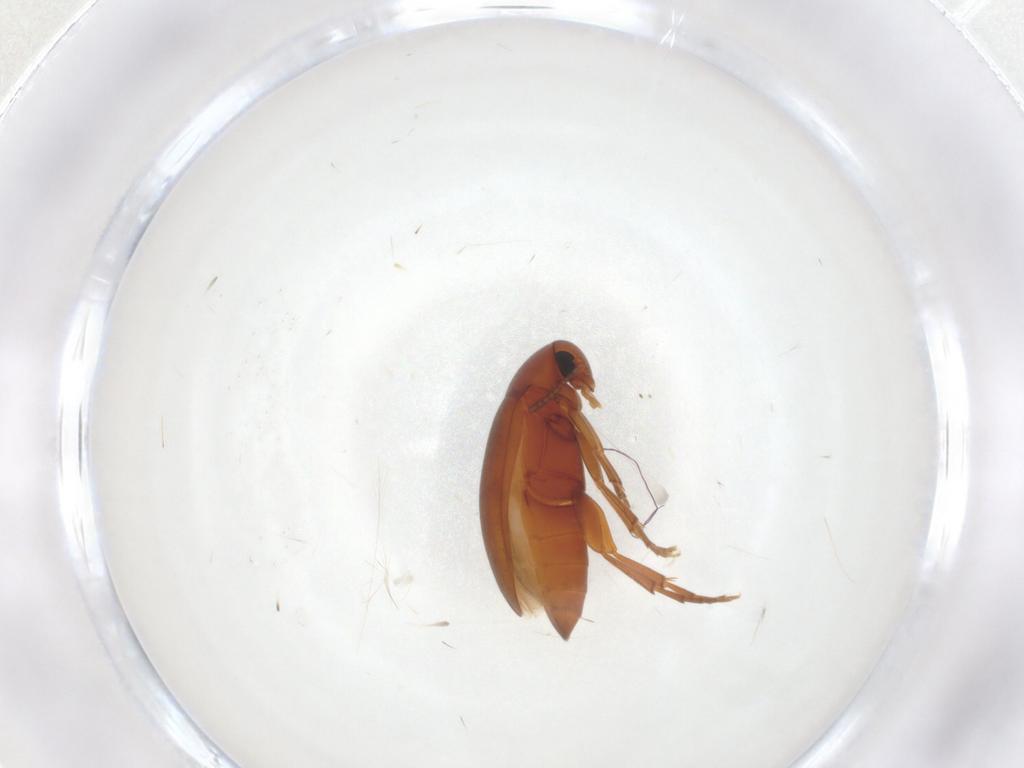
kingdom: Animalia
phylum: Arthropoda
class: Insecta
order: Coleoptera
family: Scraptiidae
